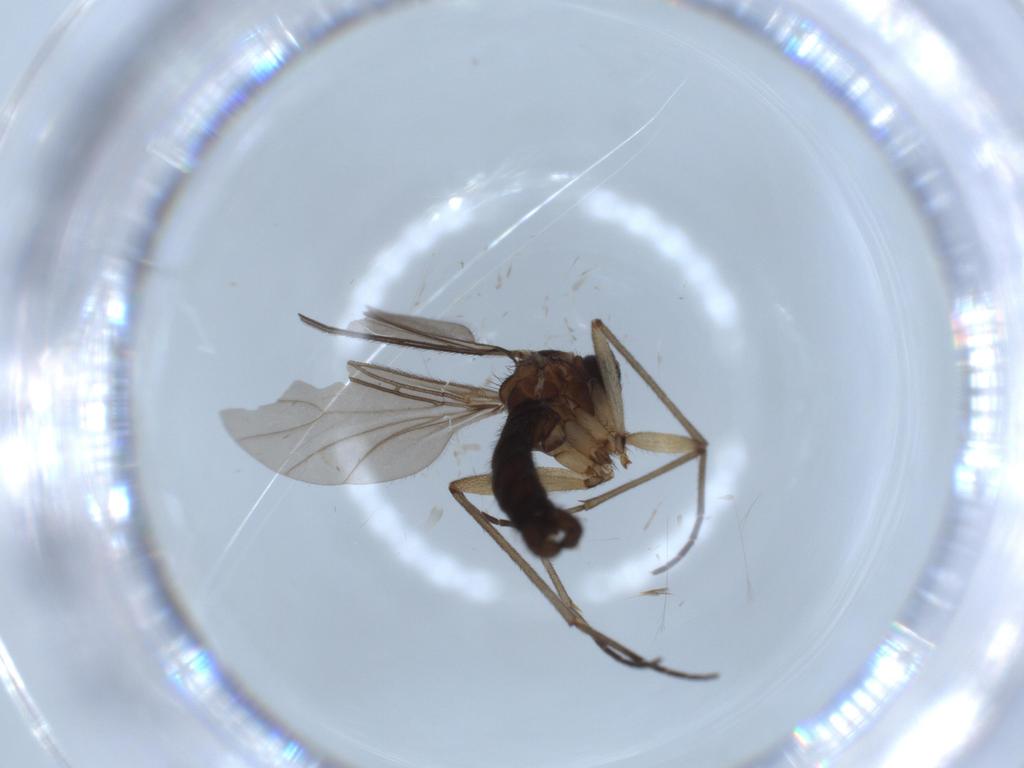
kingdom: Animalia
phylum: Arthropoda
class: Insecta
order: Diptera
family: Sciaridae
